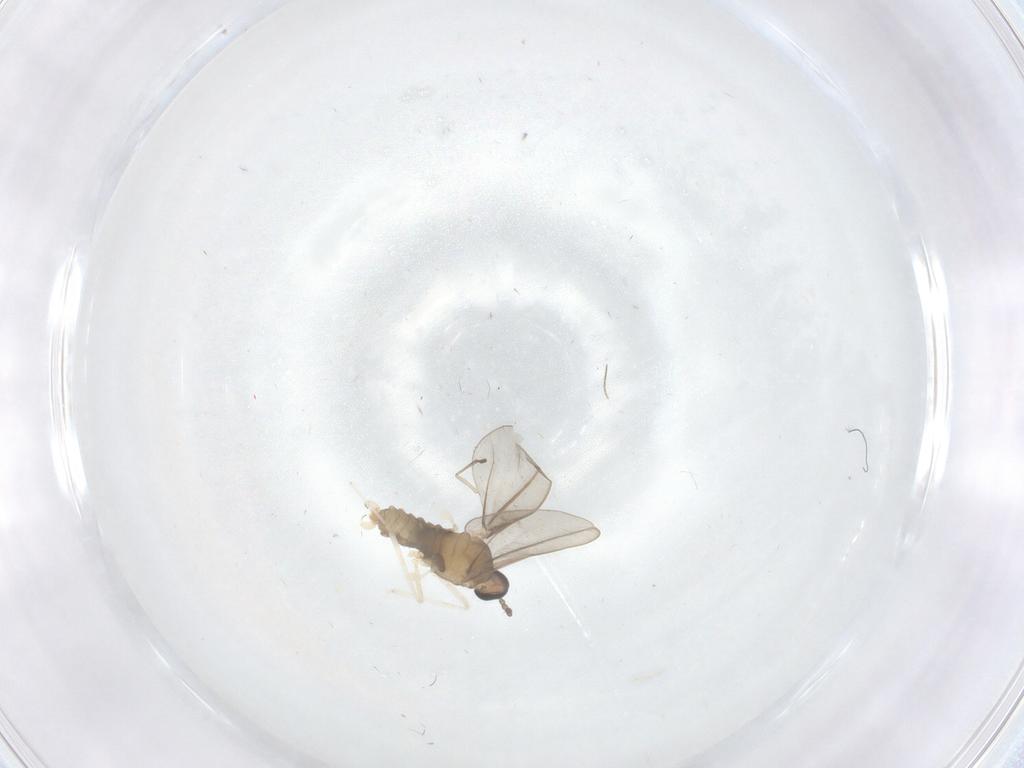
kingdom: Animalia
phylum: Arthropoda
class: Insecta
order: Diptera
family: Cecidomyiidae
